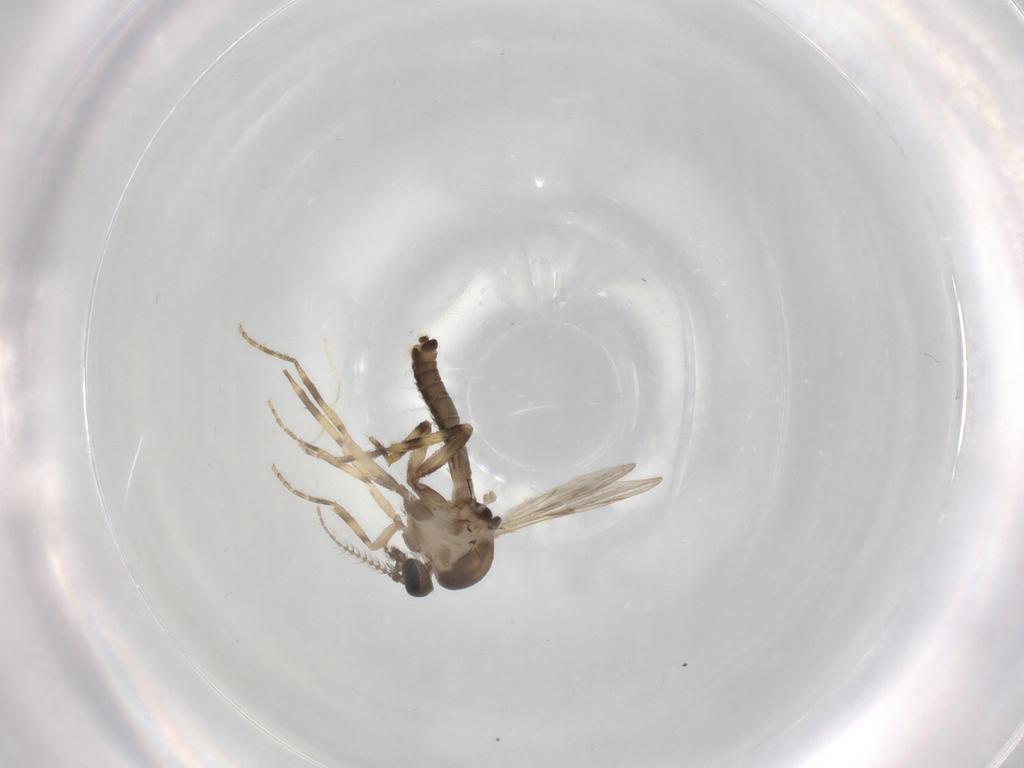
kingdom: Animalia
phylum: Arthropoda
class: Insecta
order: Diptera
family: Ceratopogonidae
